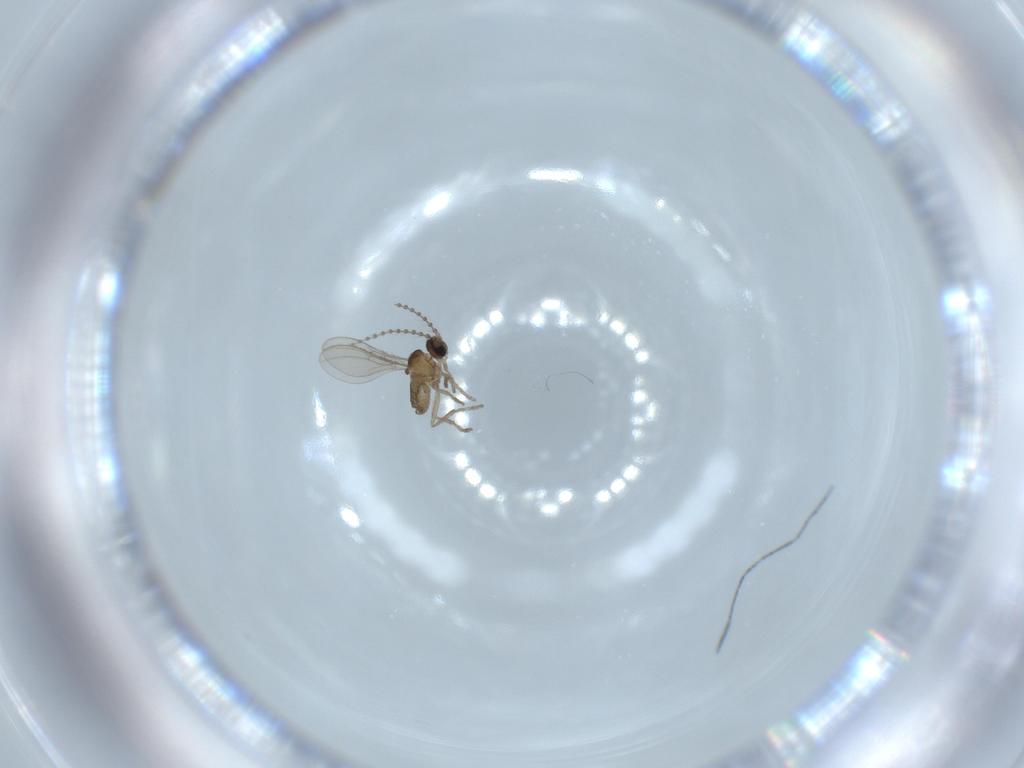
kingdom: Animalia
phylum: Arthropoda
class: Insecta
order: Diptera
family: Cecidomyiidae
